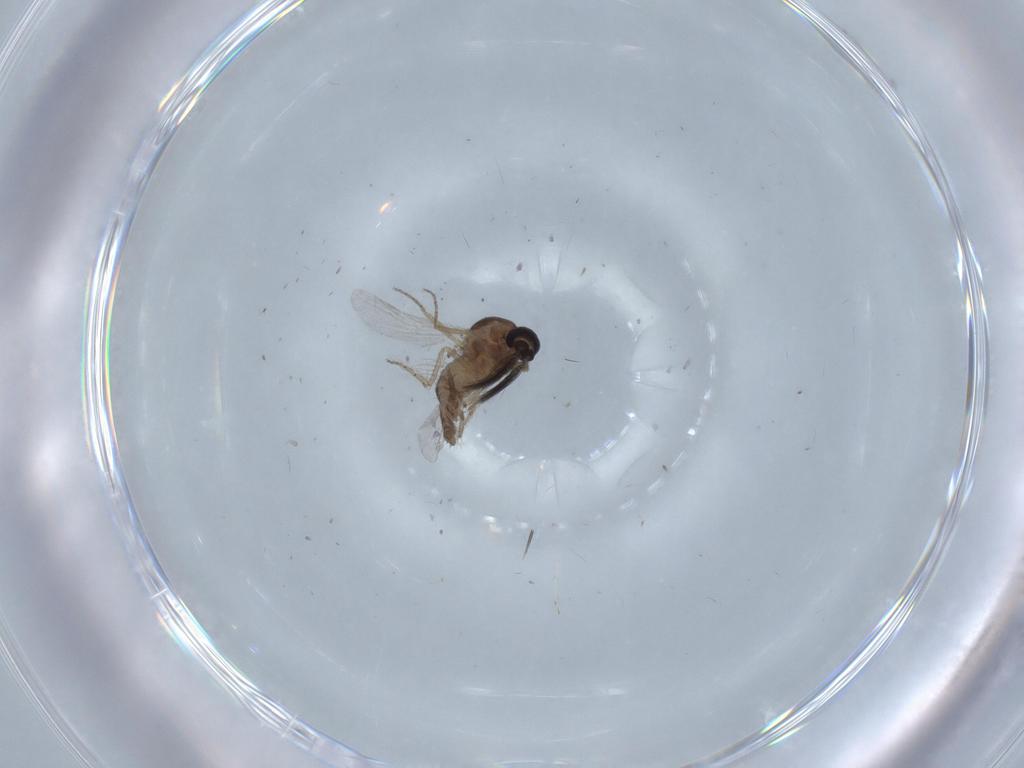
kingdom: Animalia
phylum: Arthropoda
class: Insecta
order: Diptera
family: Ceratopogonidae
